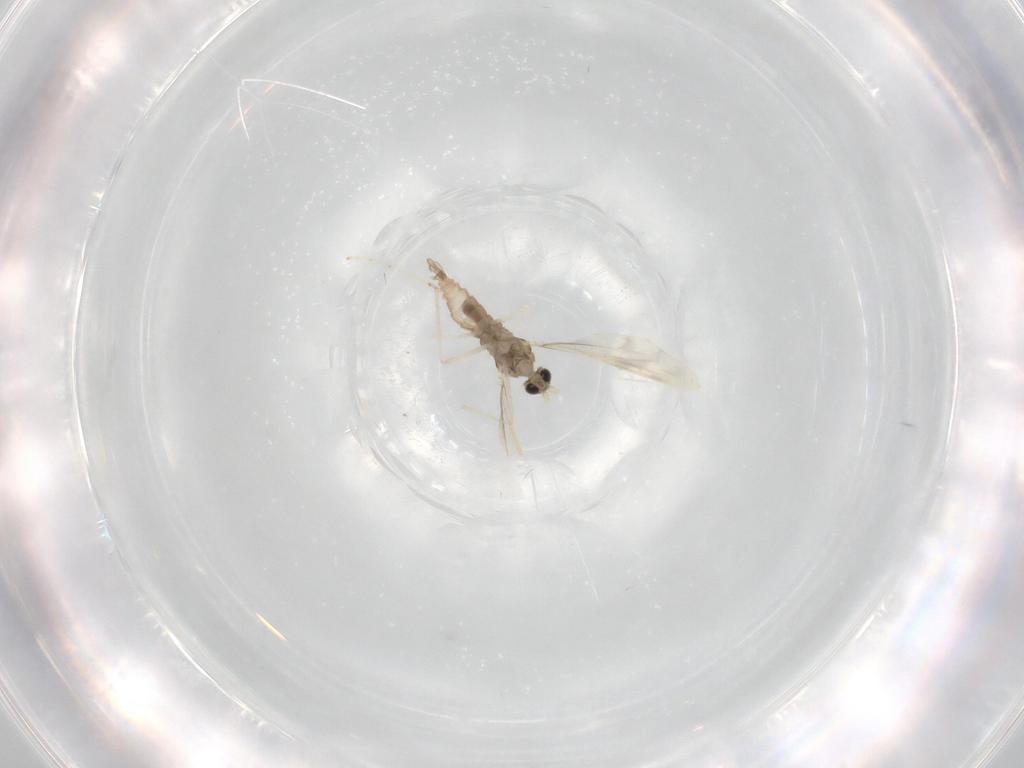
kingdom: Animalia
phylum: Arthropoda
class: Insecta
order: Diptera
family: Cecidomyiidae
